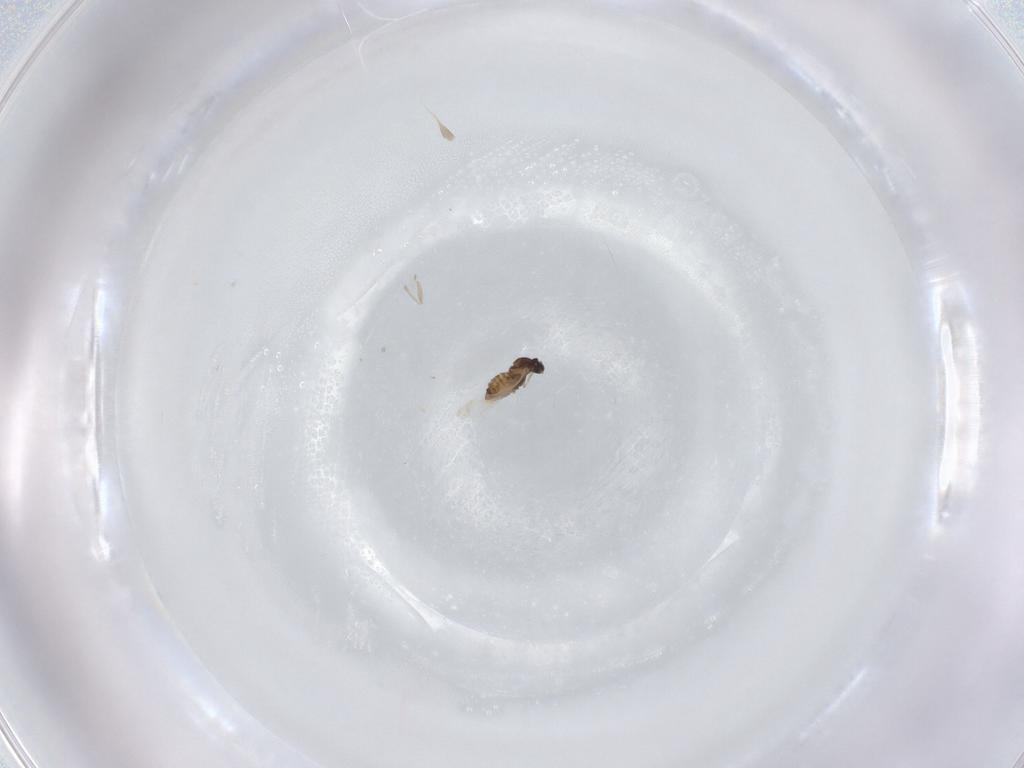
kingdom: Animalia
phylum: Arthropoda
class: Insecta
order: Diptera
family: Cecidomyiidae
